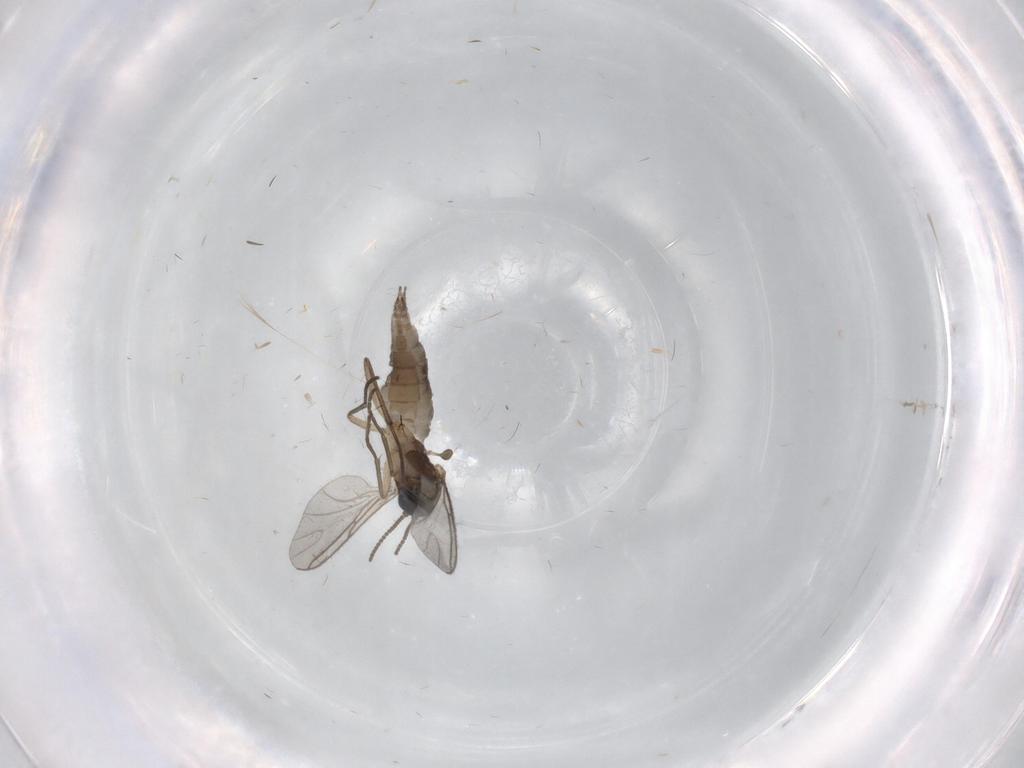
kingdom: Animalia
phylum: Arthropoda
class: Insecta
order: Diptera
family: Sciaridae
